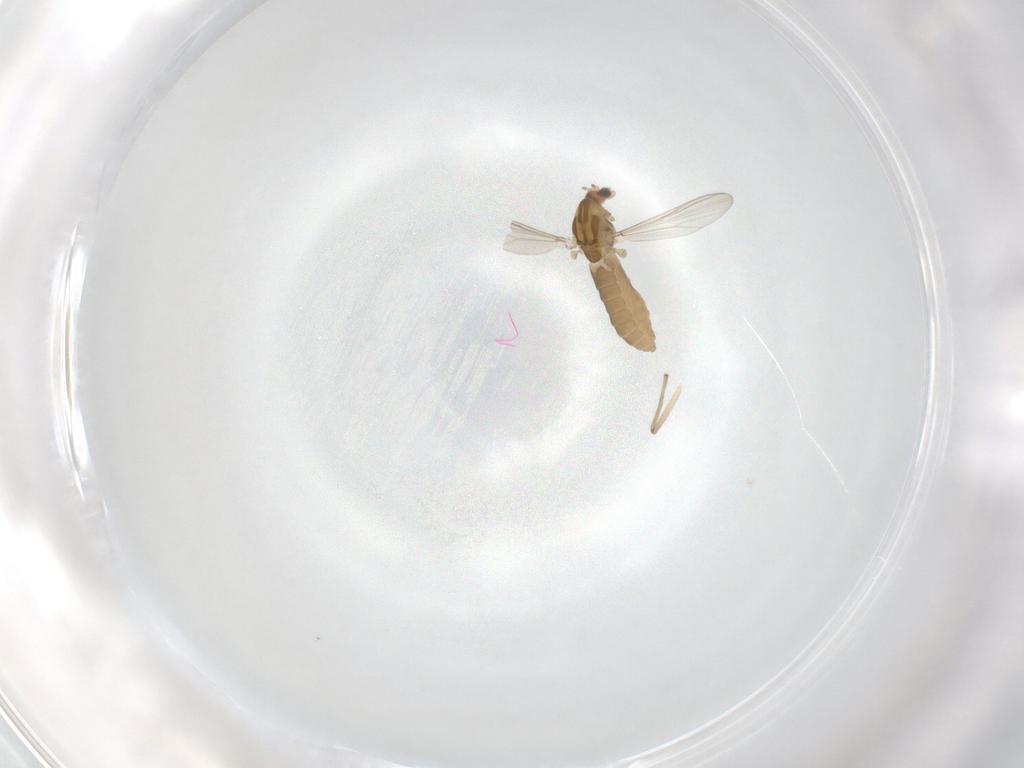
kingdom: Animalia
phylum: Arthropoda
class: Insecta
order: Diptera
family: Chironomidae
